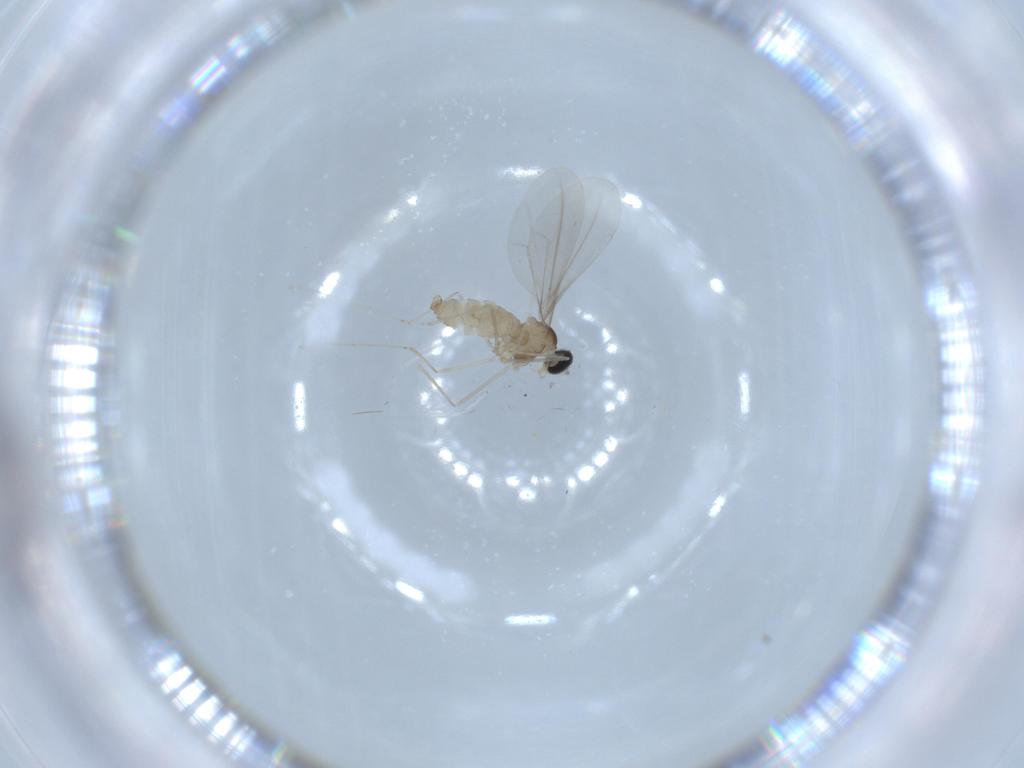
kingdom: Animalia
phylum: Arthropoda
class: Insecta
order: Diptera
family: Cecidomyiidae
